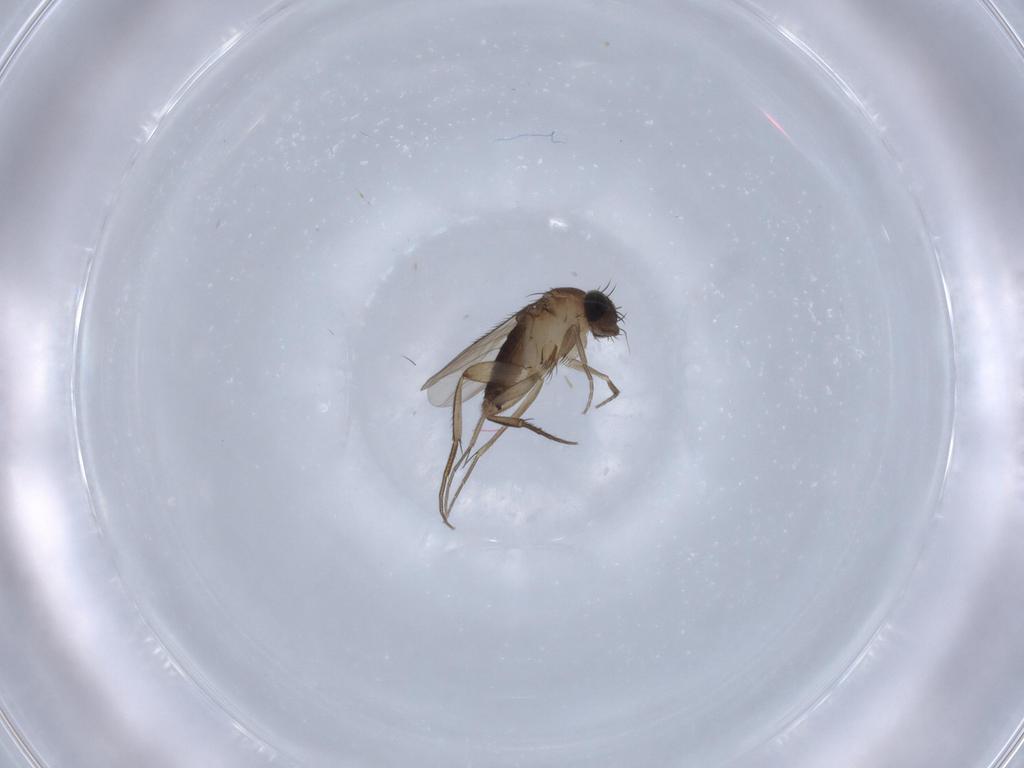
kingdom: Animalia
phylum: Arthropoda
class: Insecta
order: Diptera
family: Phoridae
